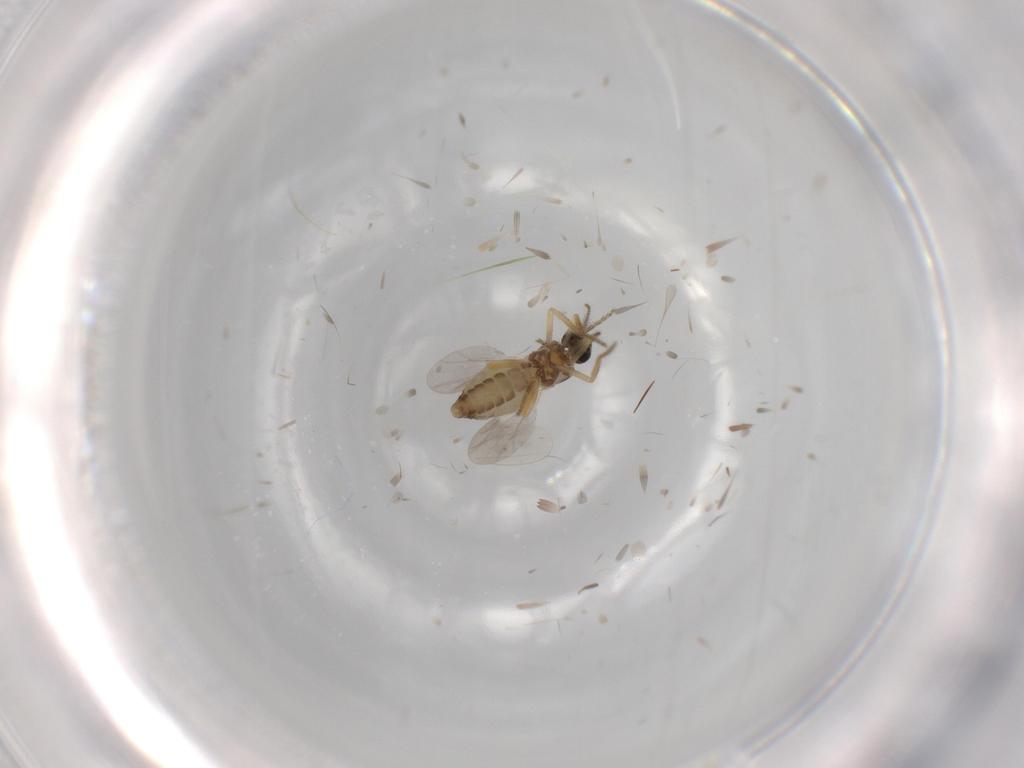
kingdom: Animalia
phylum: Arthropoda
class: Insecta
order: Diptera
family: Ceratopogonidae
